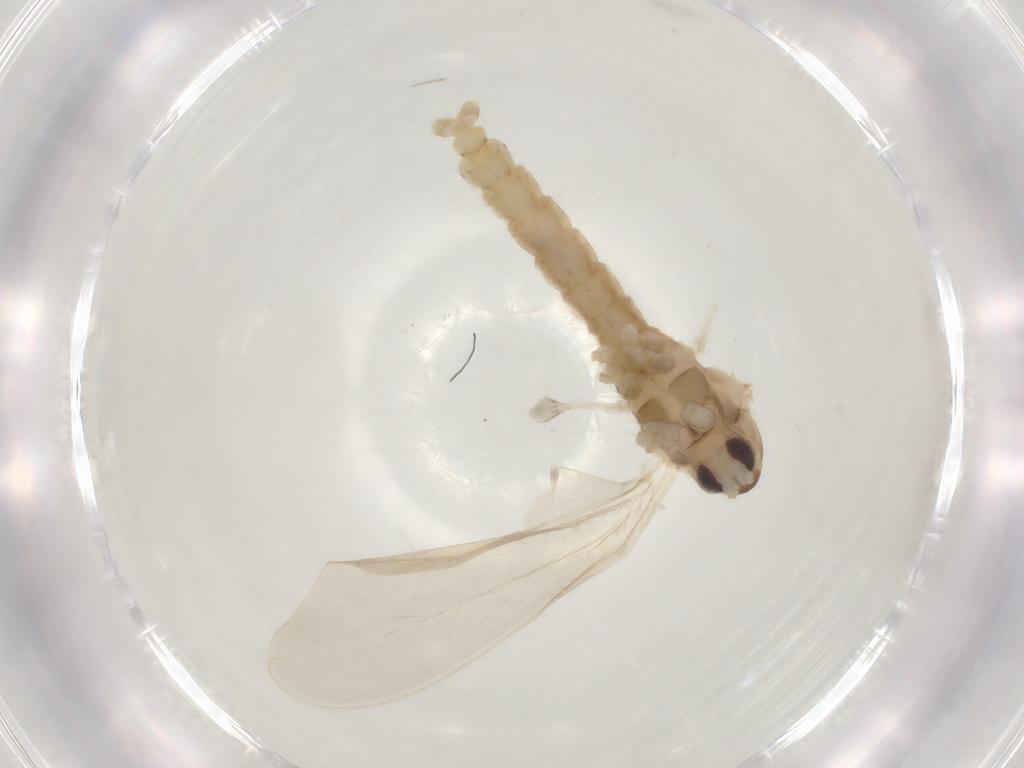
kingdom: Animalia
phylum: Arthropoda
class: Insecta
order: Diptera
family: Cecidomyiidae
